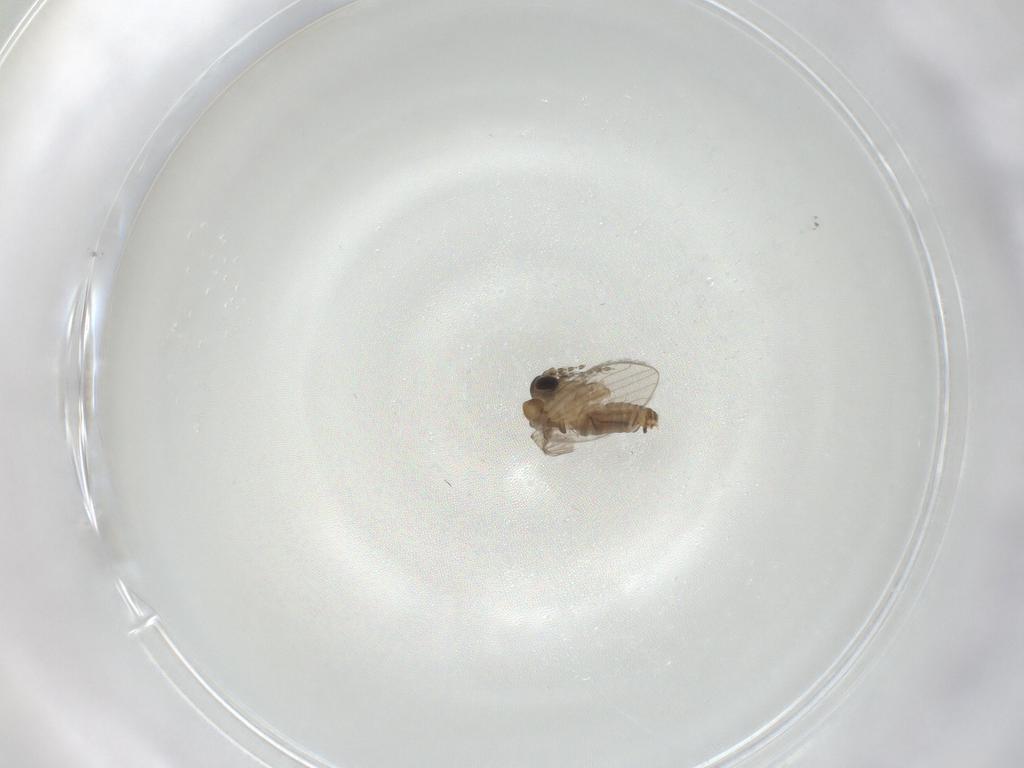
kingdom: Animalia
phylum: Arthropoda
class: Insecta
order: Diptera
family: Psychodidae
